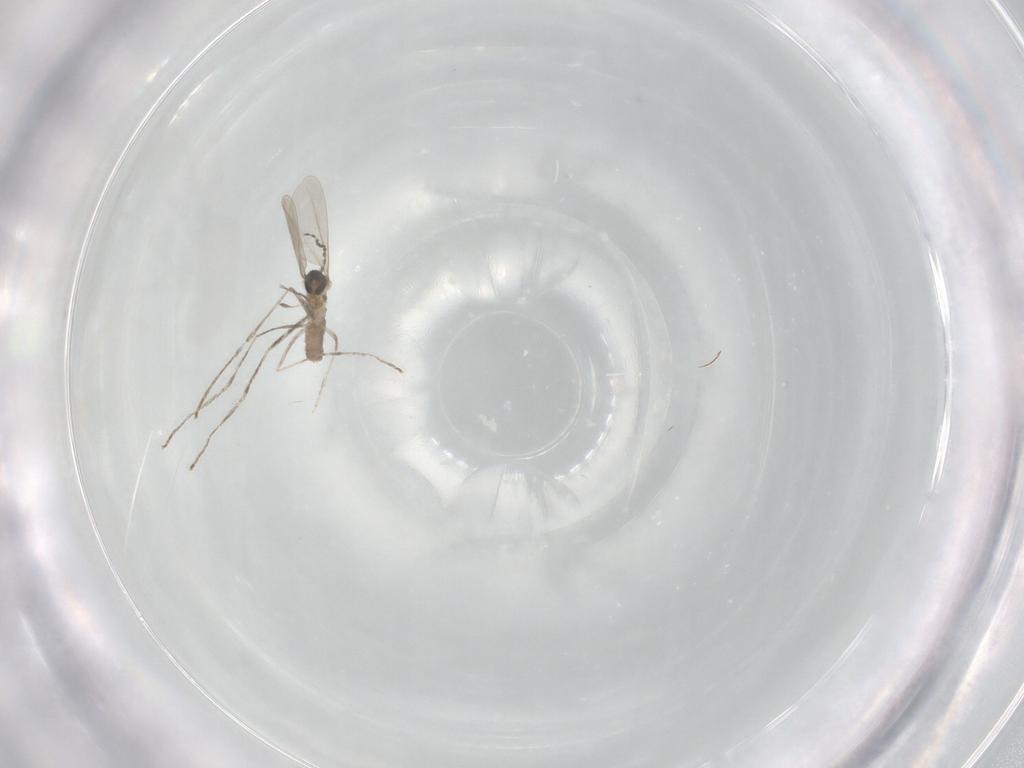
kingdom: Animalia
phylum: Arthropoda
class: Insecta
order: Diptera
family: Cecidomyiidae
